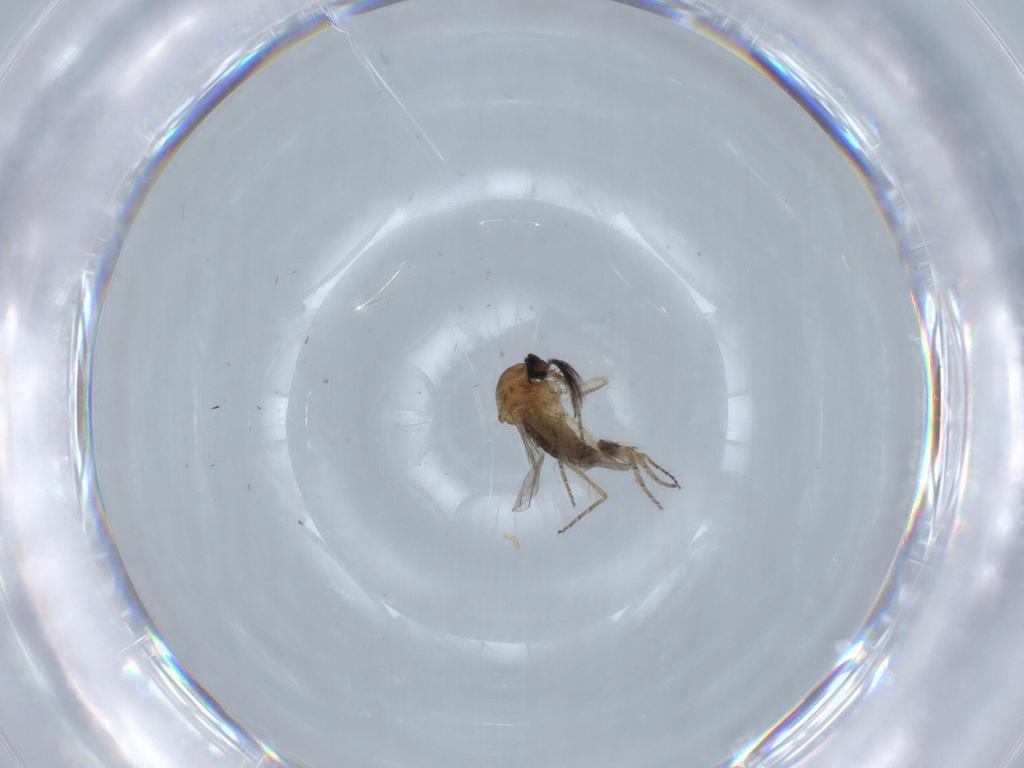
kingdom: Animalia
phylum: Arthropoda
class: Insecta
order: Diptera
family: Ceratopogonidae
